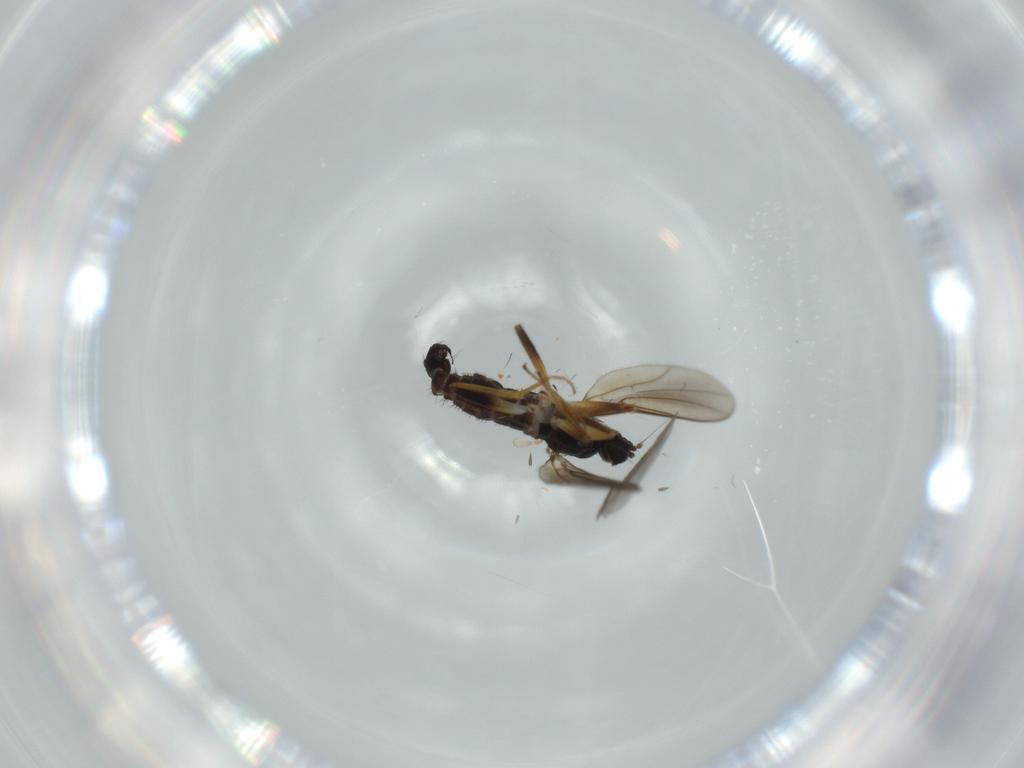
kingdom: Animalia
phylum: Arthropoda
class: Insecta
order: Diptera
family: Hybotidae
